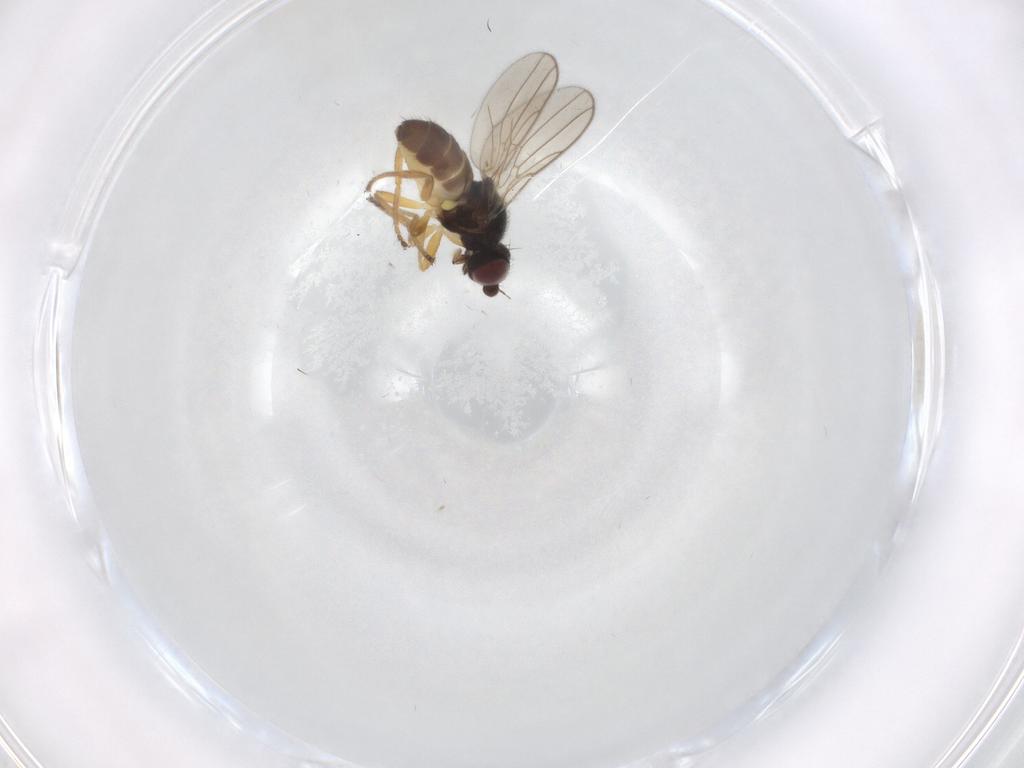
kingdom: Animalia
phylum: Arthropoda
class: Insecta
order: Diptera
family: Chloropidae
